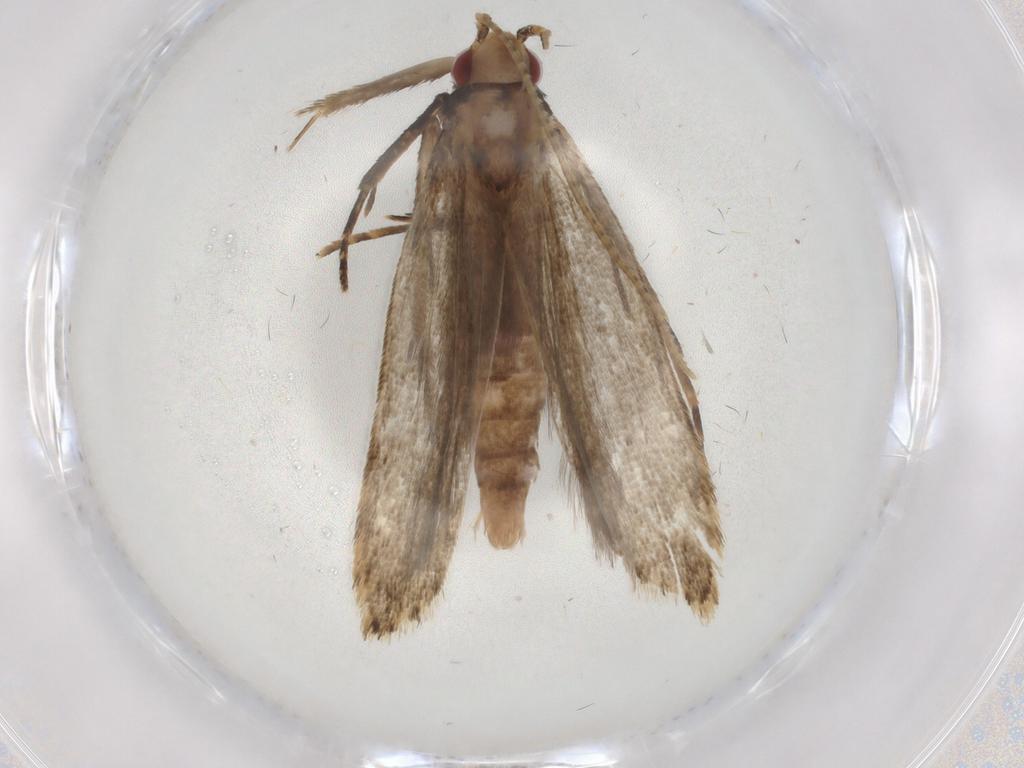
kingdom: Animalia
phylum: Arthropoda
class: Insecta
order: Lepidoptera
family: Gelechiidae
